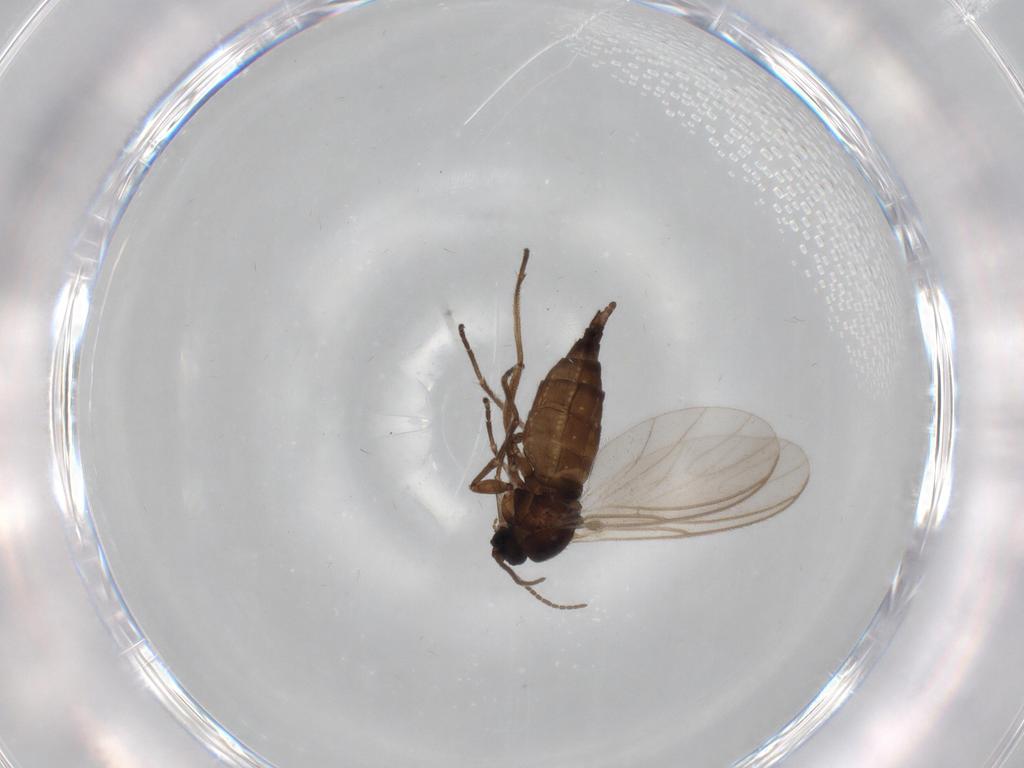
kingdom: Animalia
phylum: Arthropoda
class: Insecta
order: Diptera
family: Sciaridae
